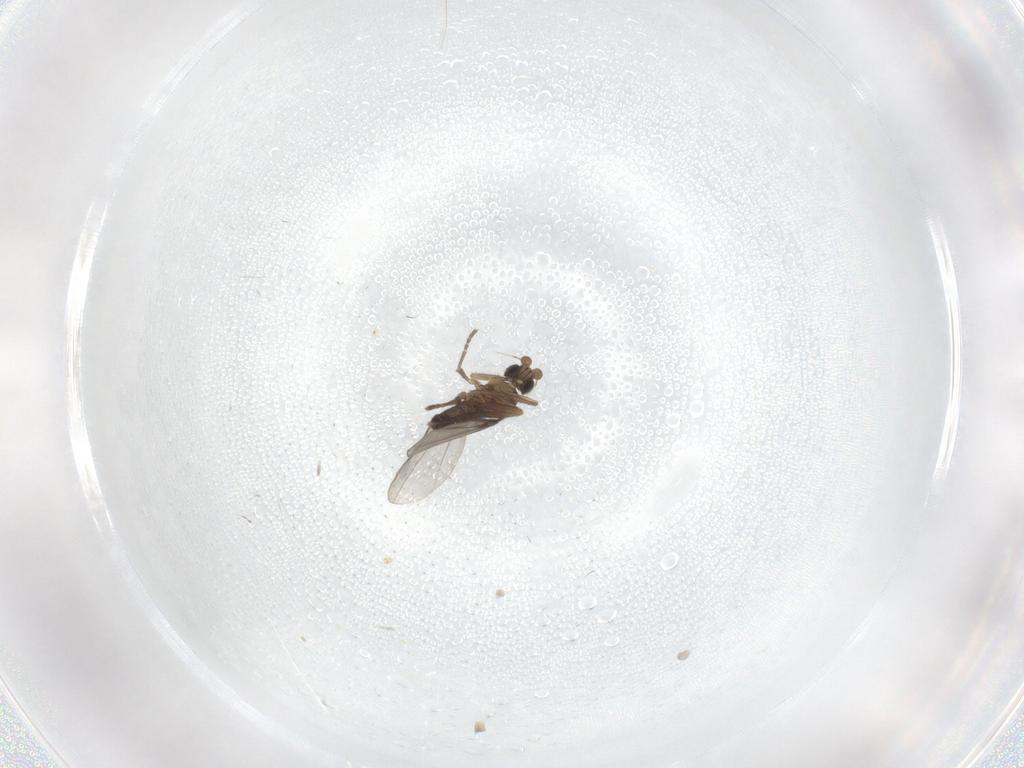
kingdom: Animalia
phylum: Arthropoda
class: Insecta
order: Diptera
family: Phoridae
